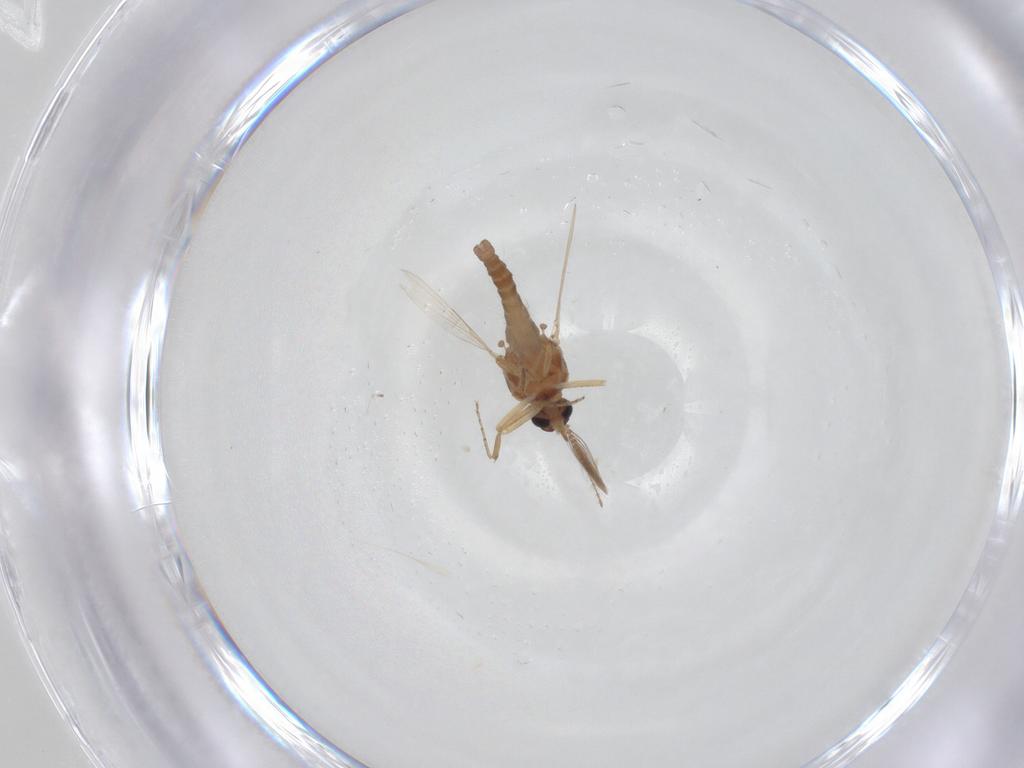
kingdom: Animalia
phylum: Arthropoda
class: Insecta
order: Diptera
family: Ceratopogonidae
